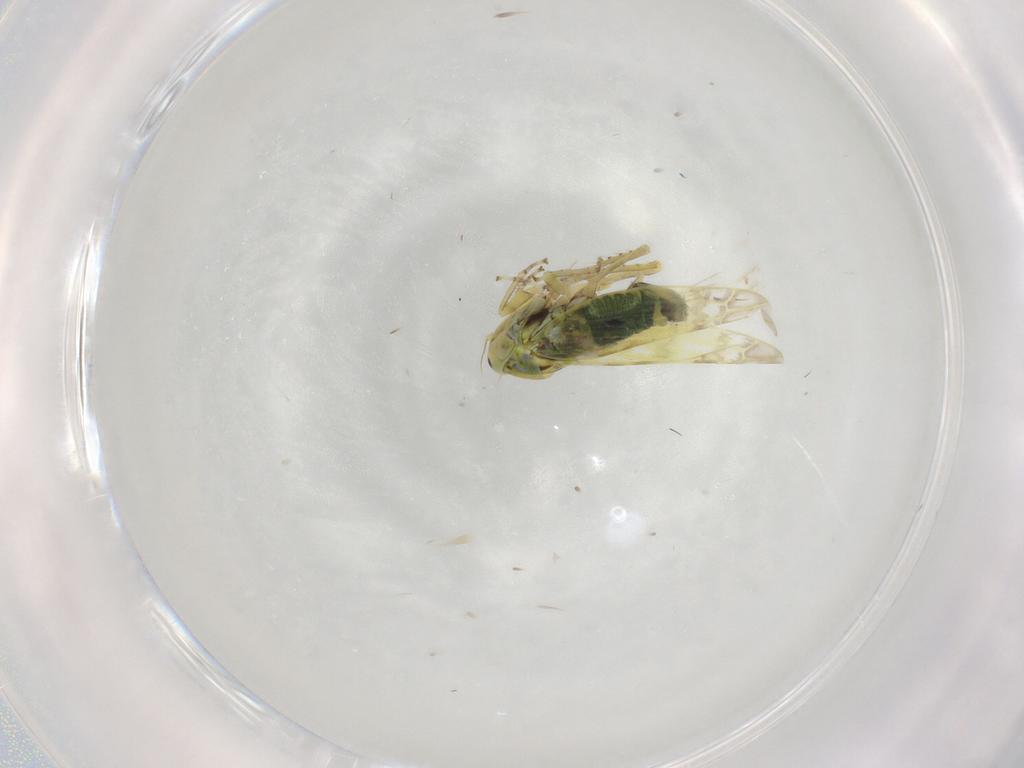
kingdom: Animalia
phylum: Arthropoda
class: Insecta
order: Hemiptera
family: Cicadellidae
